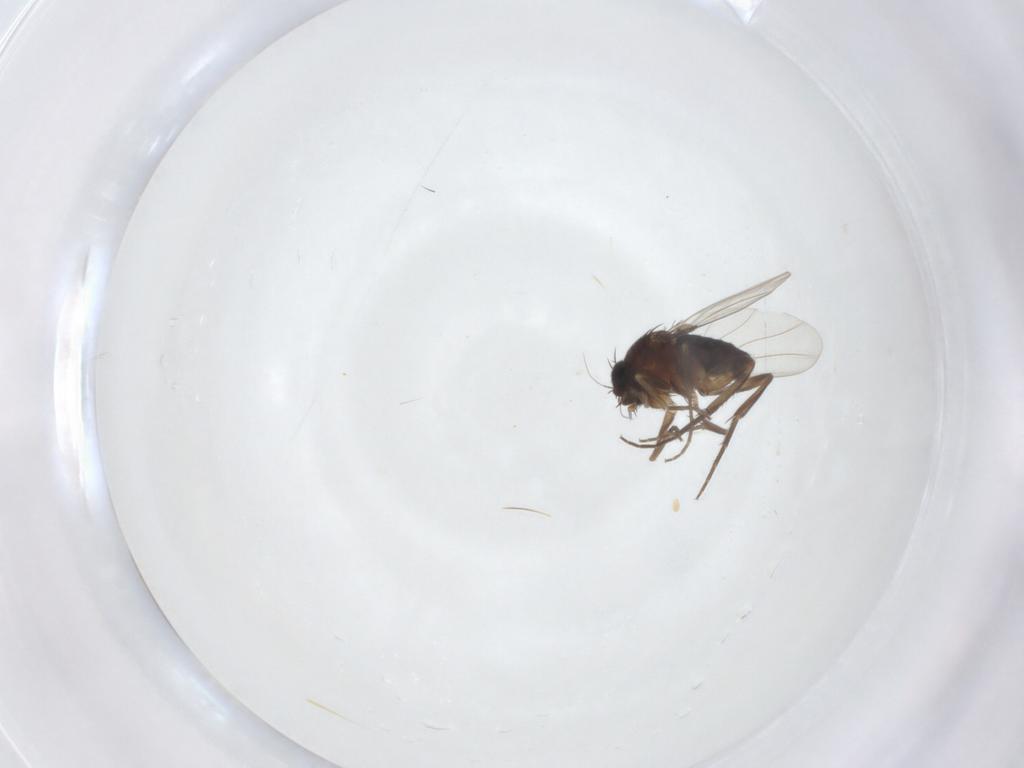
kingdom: Animalia
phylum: Arthropoda
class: Insecta
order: Diptera
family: Phoridae
